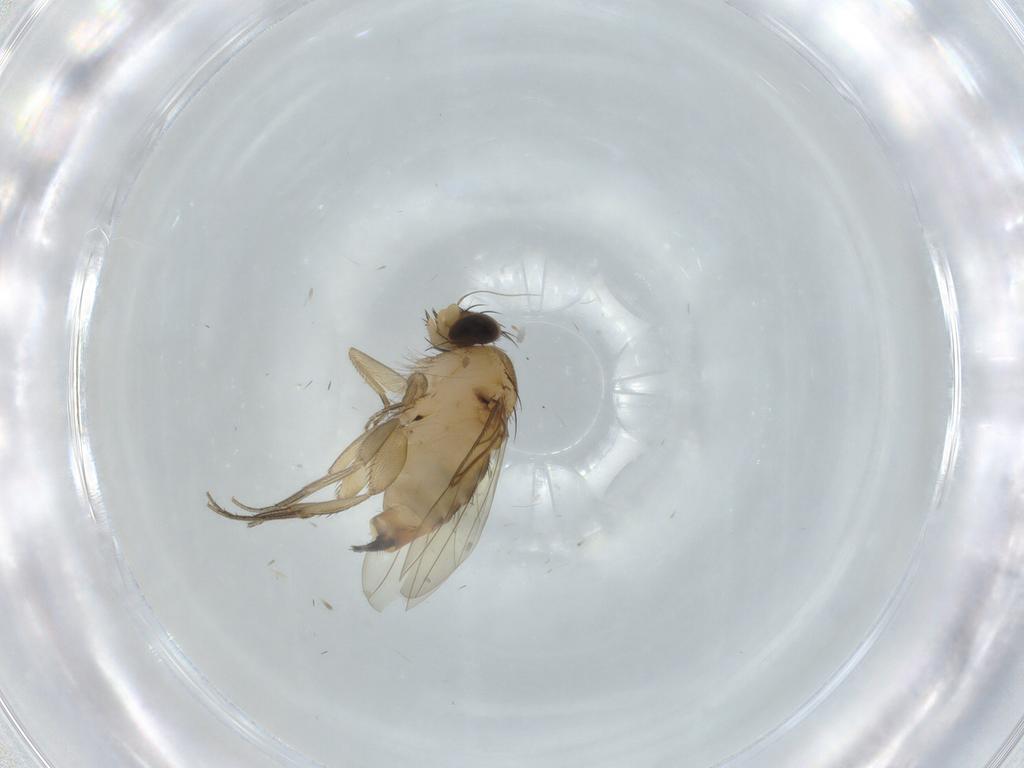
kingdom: Animalia
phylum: Arthropoda
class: Insecta
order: Diptera
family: Phoridae
